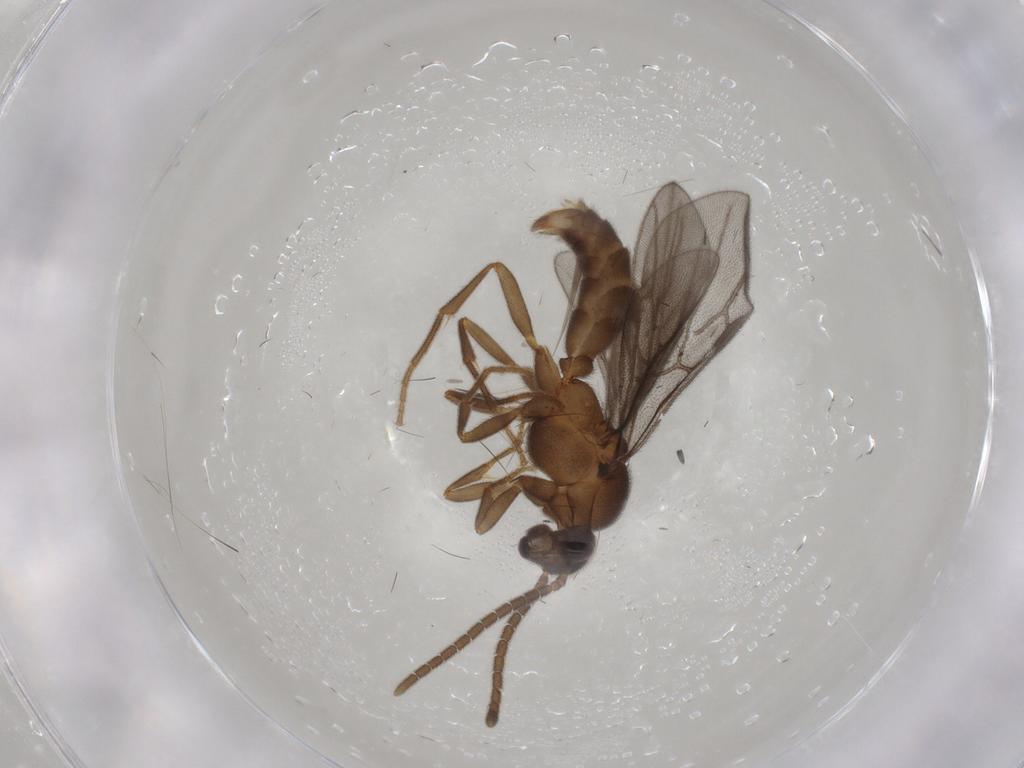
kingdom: Animalia
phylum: Arthropoda
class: Insecta
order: Hymenoptera
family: Formicidae
